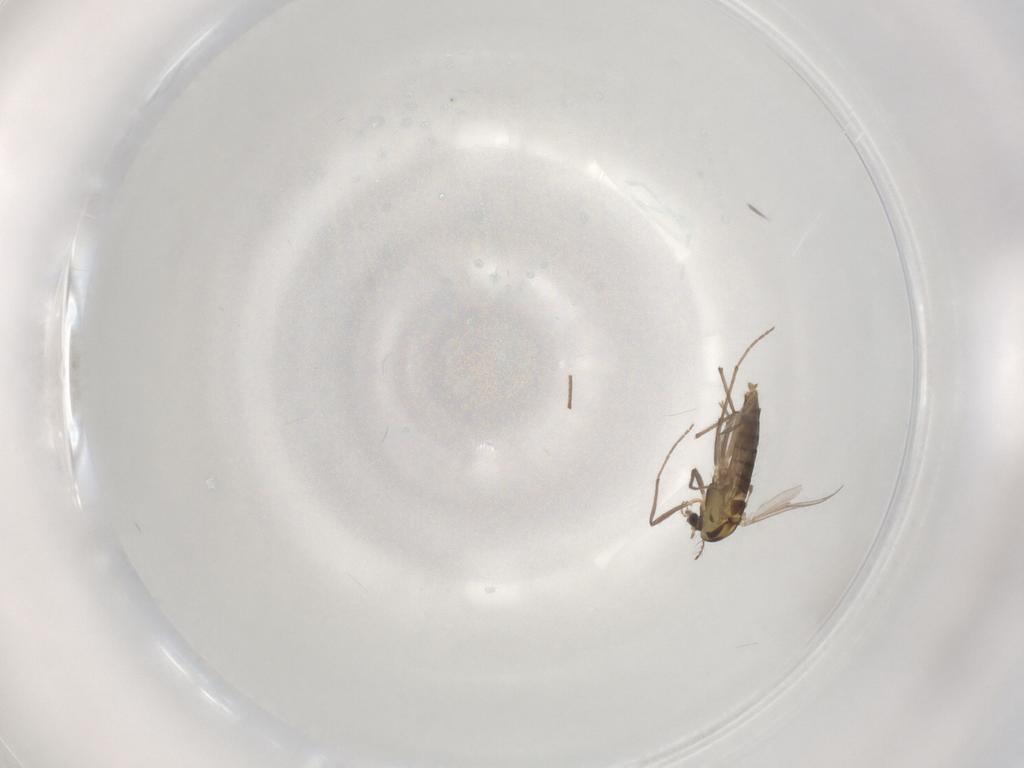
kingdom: Animalia
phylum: Arthropoda
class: Insecta
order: Diptera
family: Chironomidae
